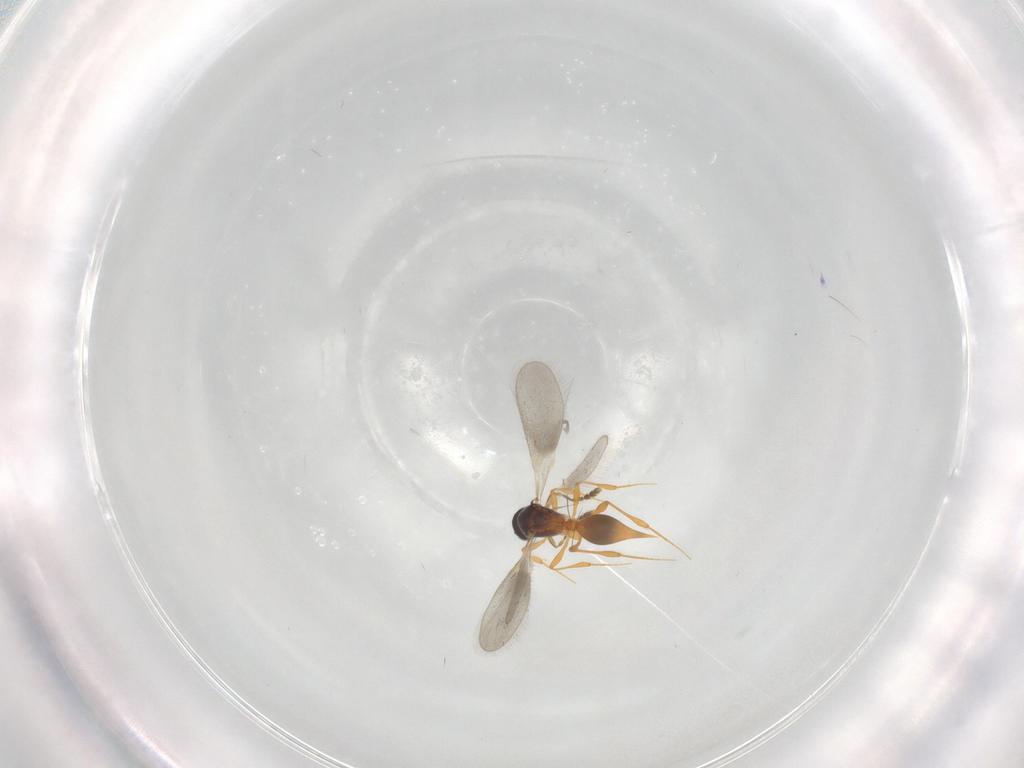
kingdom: Animalia
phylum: Arthropoda
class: Insecta
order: Hymenoptera
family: Platygastridae
